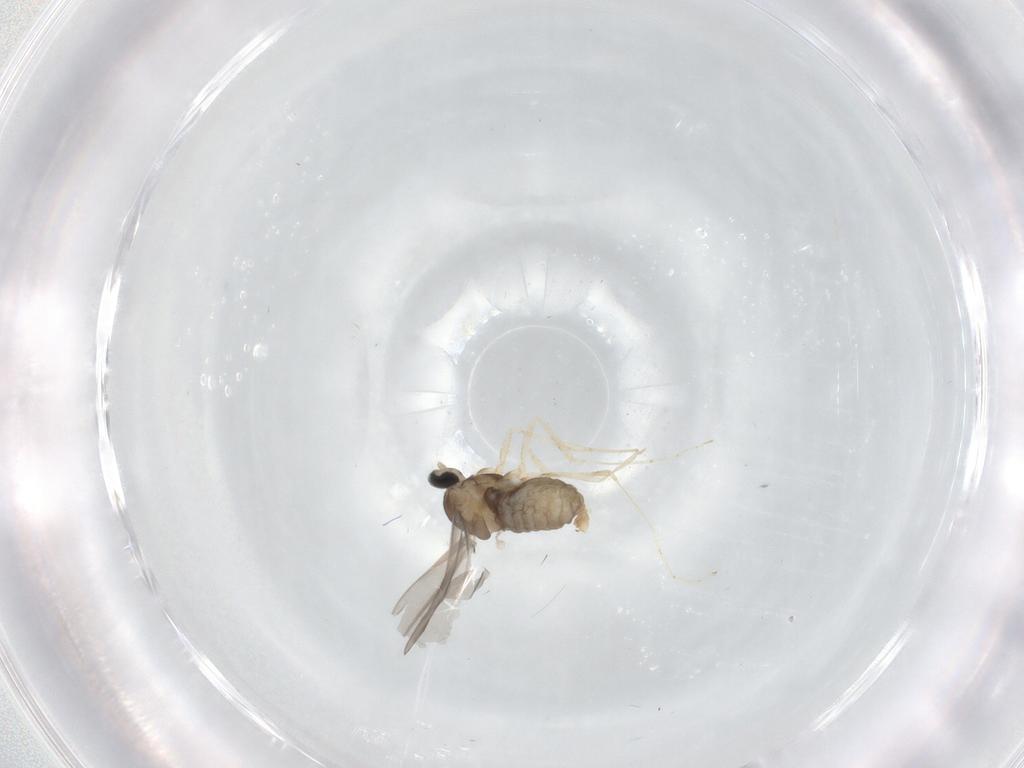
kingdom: Animalia
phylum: Arthropoda
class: Insecta
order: Diptera
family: Cecidomyiidae
